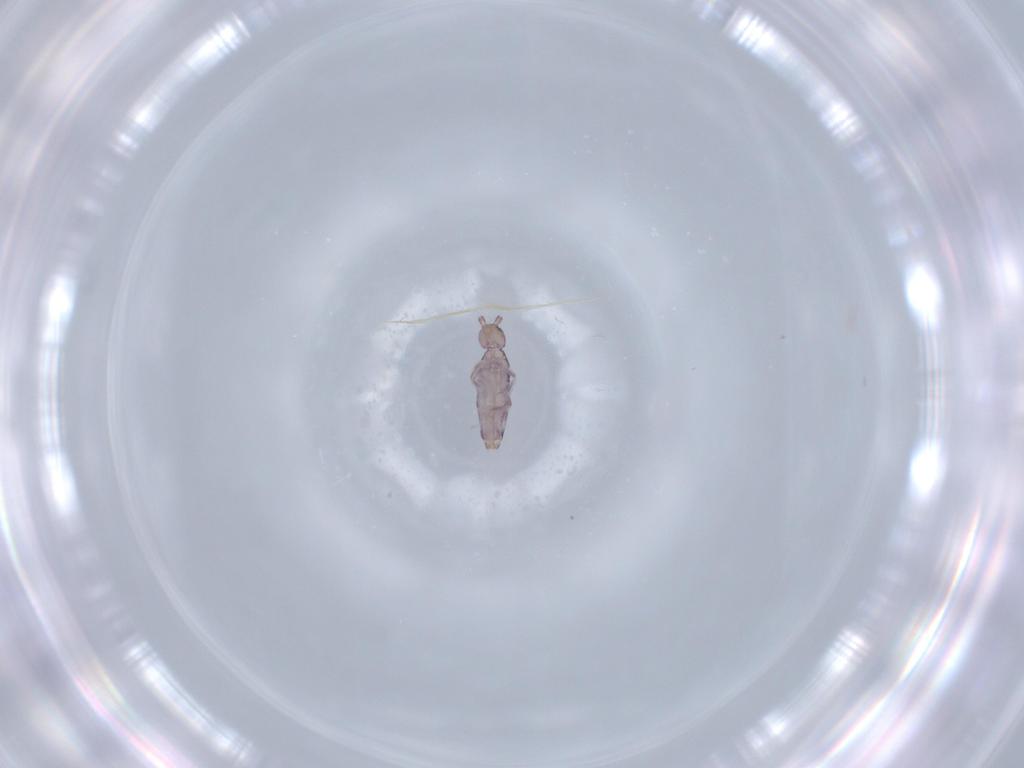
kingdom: Animalia
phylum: Arthropoda
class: Collembola
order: Entomobryomorpha
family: Entomobryidae
